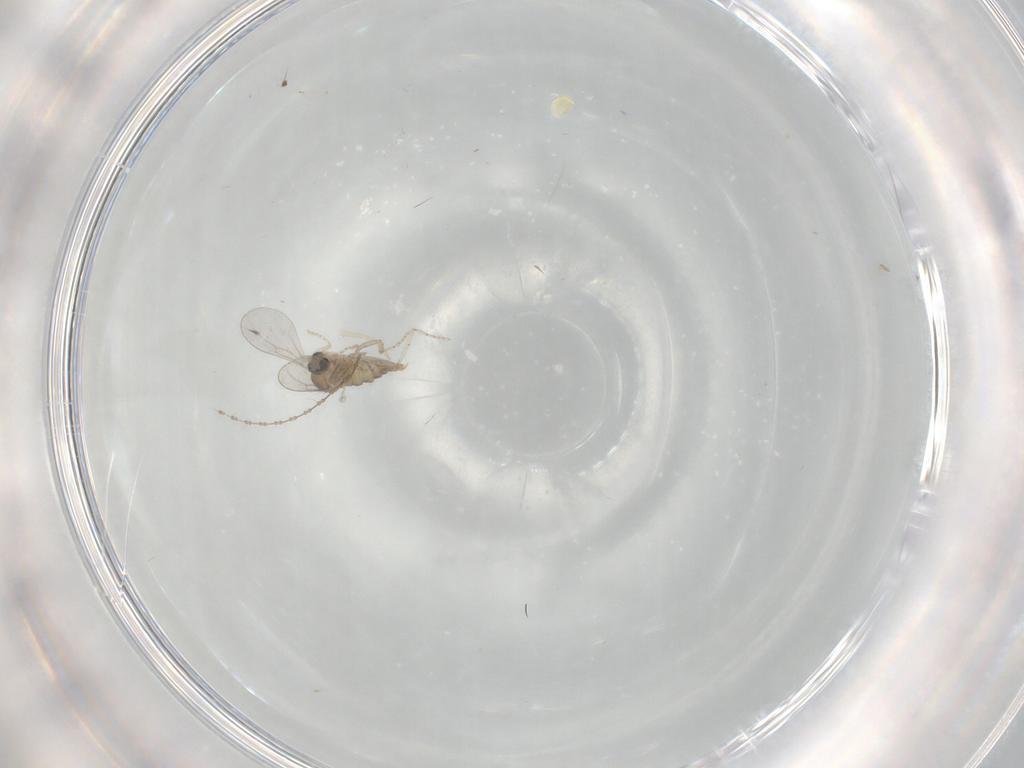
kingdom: Animalia
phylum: Arthropoda
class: Insecta
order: Diptera
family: Cecidomyiidae
